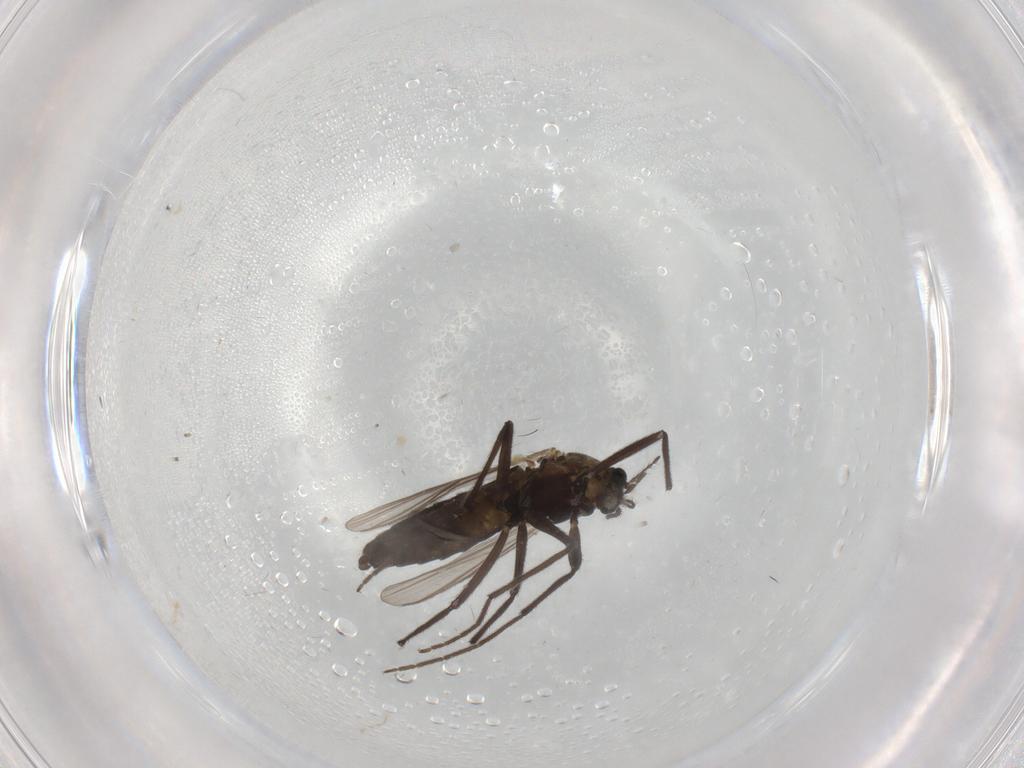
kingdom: Animalia
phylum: Arthropoda
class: Insecta
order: Diptera
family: Chironomidae
